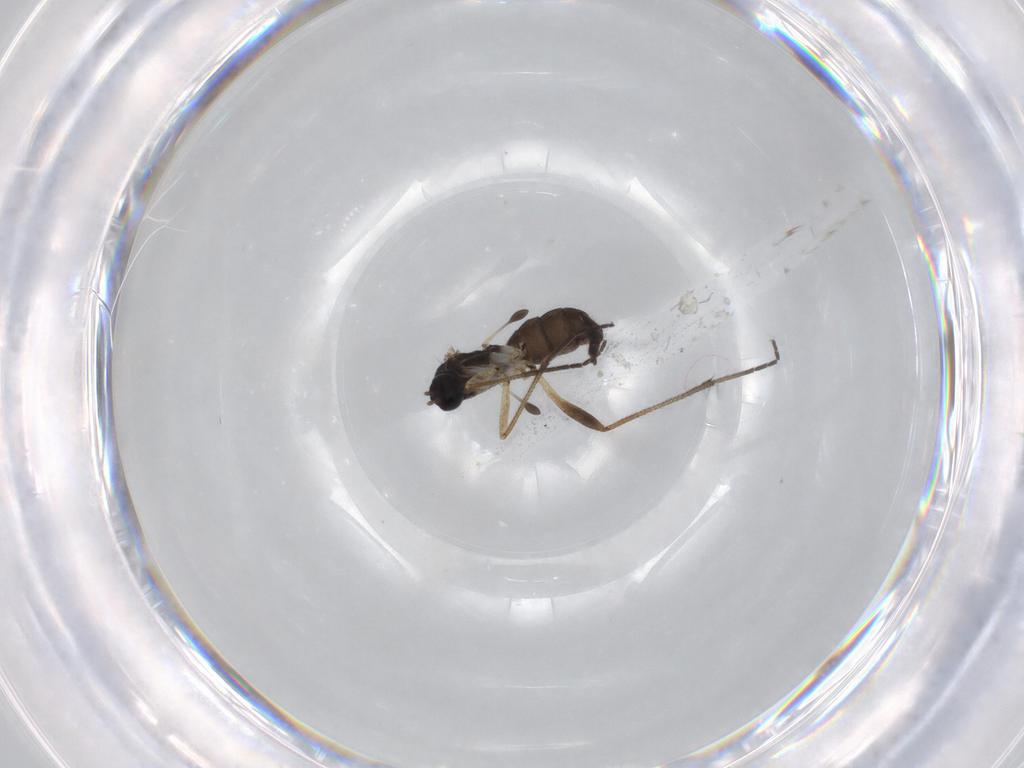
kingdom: Animalia
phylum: Arthropoda
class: Insecta
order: Diptera
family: Sciaridae
